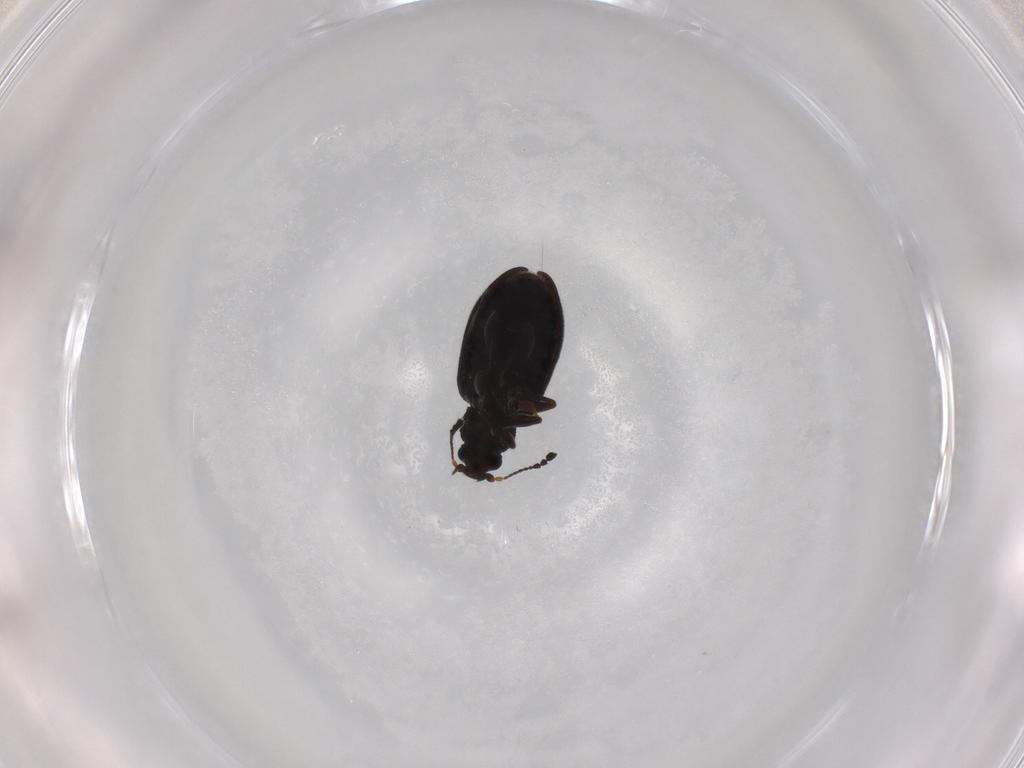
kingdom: Animalia
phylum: Arthropoda
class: Insecta
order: Coleoptera
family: Latridiidae
